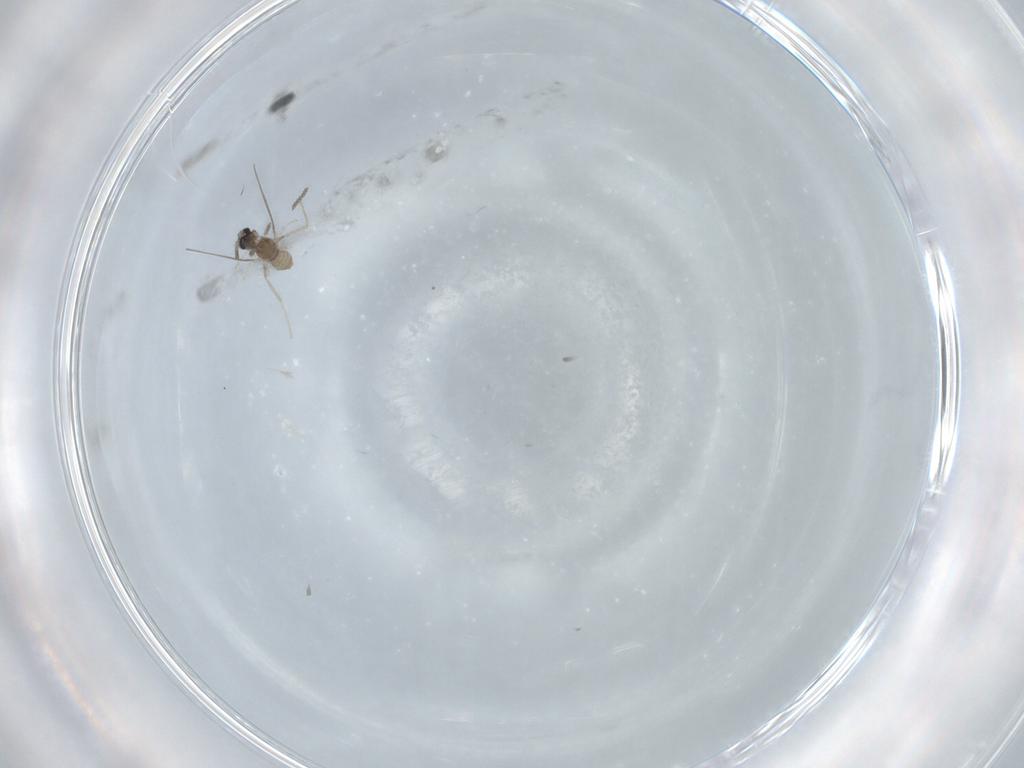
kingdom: Animalia
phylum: Arthropoda
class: Insecta
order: Diptera
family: Cecidomyiidae
